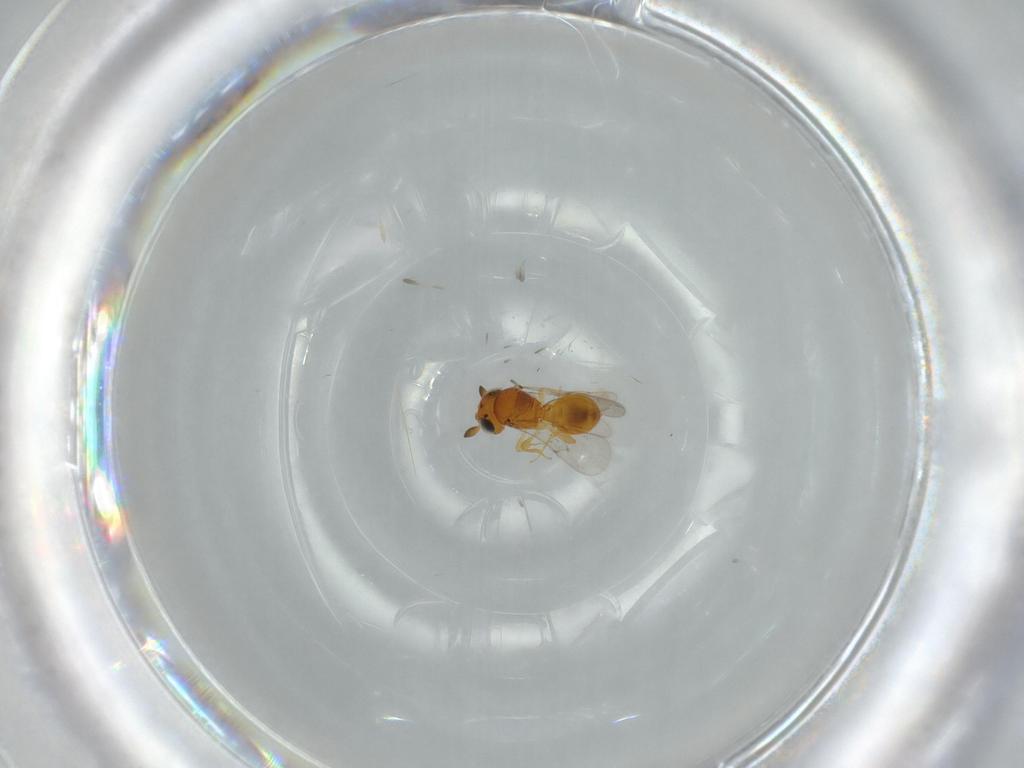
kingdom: Animalia
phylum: Arthropoda
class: Insecta
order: Hymenoptera
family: Scelionidae
